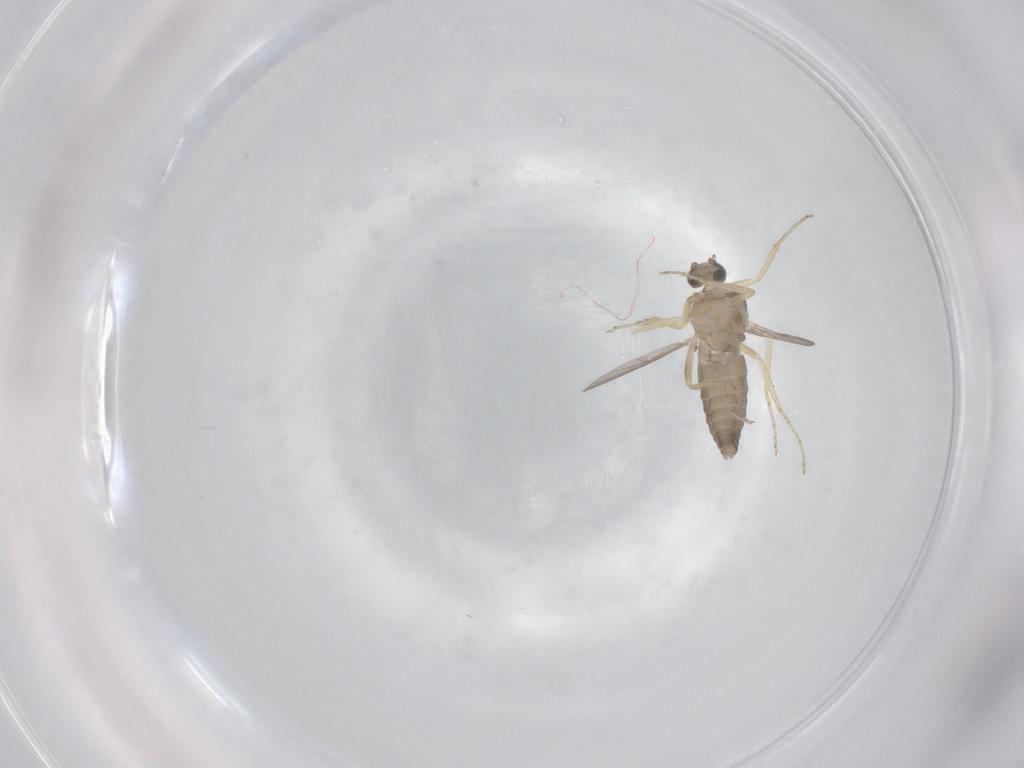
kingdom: Animalia
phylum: Arthropoda
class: Insecta
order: Diptera
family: Ceratopogonidae
